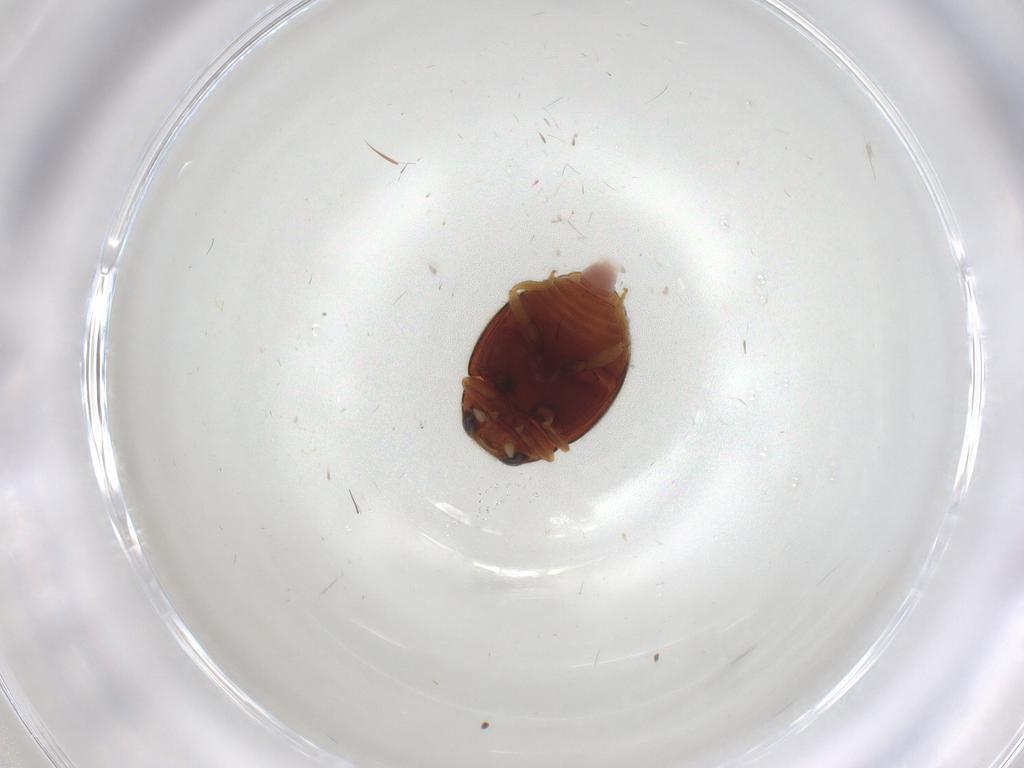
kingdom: Animalia
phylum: Arthropoda
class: Insecta
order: Coleoptera
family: Coccinellidae
